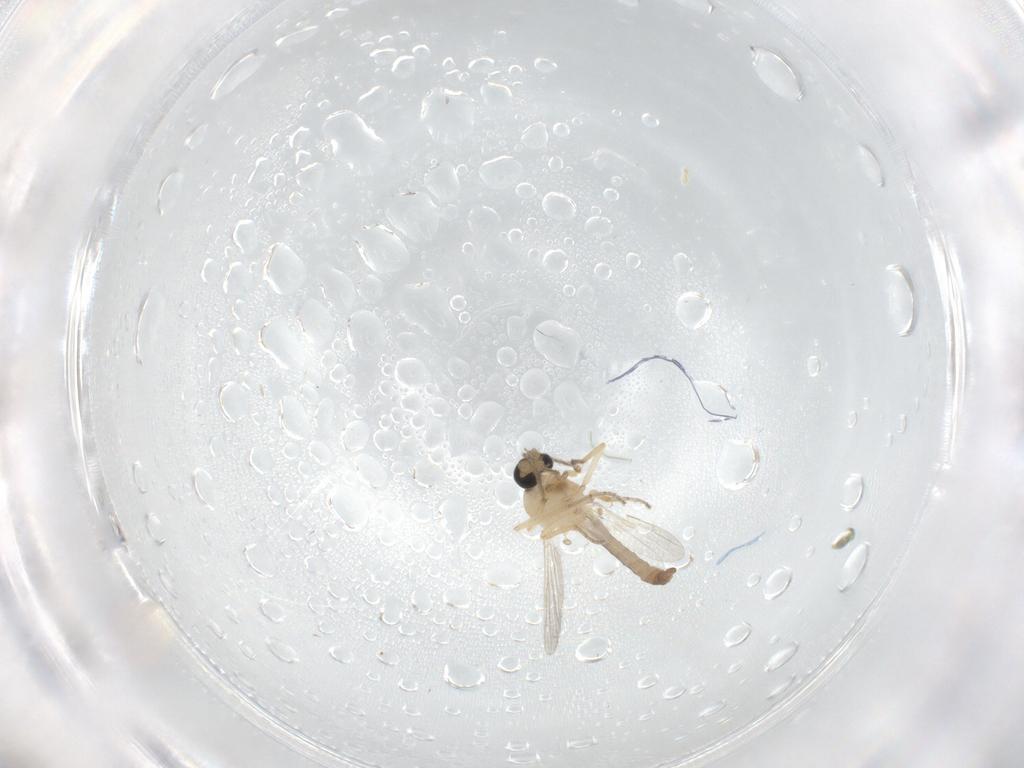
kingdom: Animalia
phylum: Arthropoda
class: Insecta
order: Diptera
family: Ceratopogonidae
